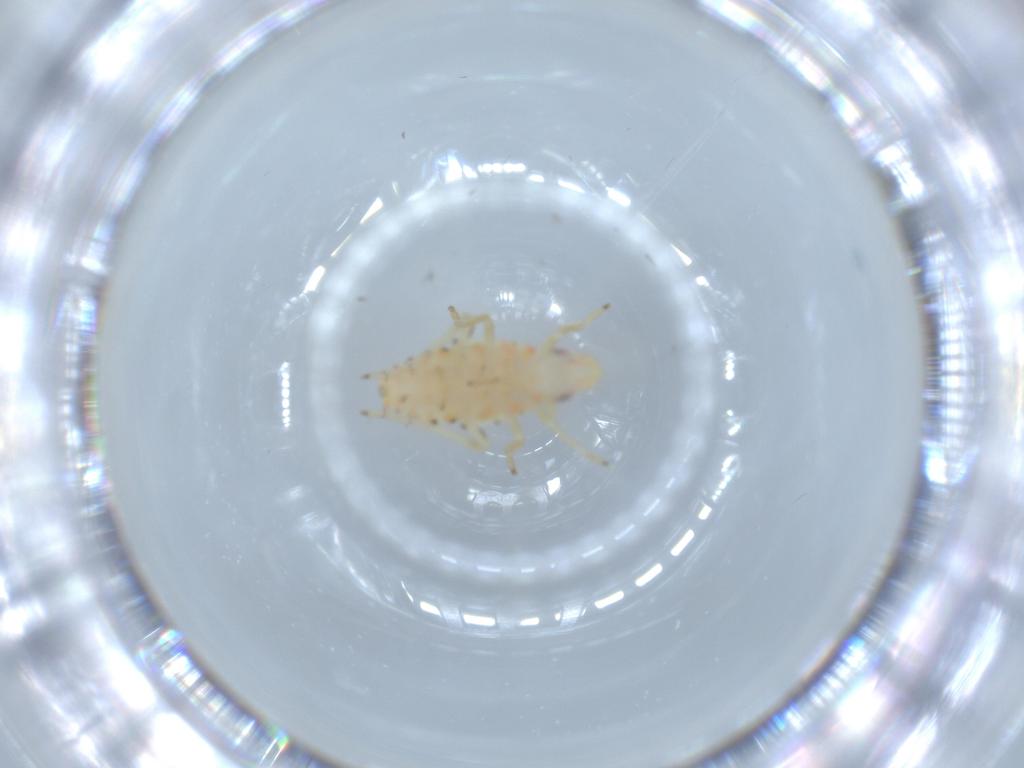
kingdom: Animalia
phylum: Arthropoda
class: Insecta
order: Hemiptera
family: Tropiduchidae
